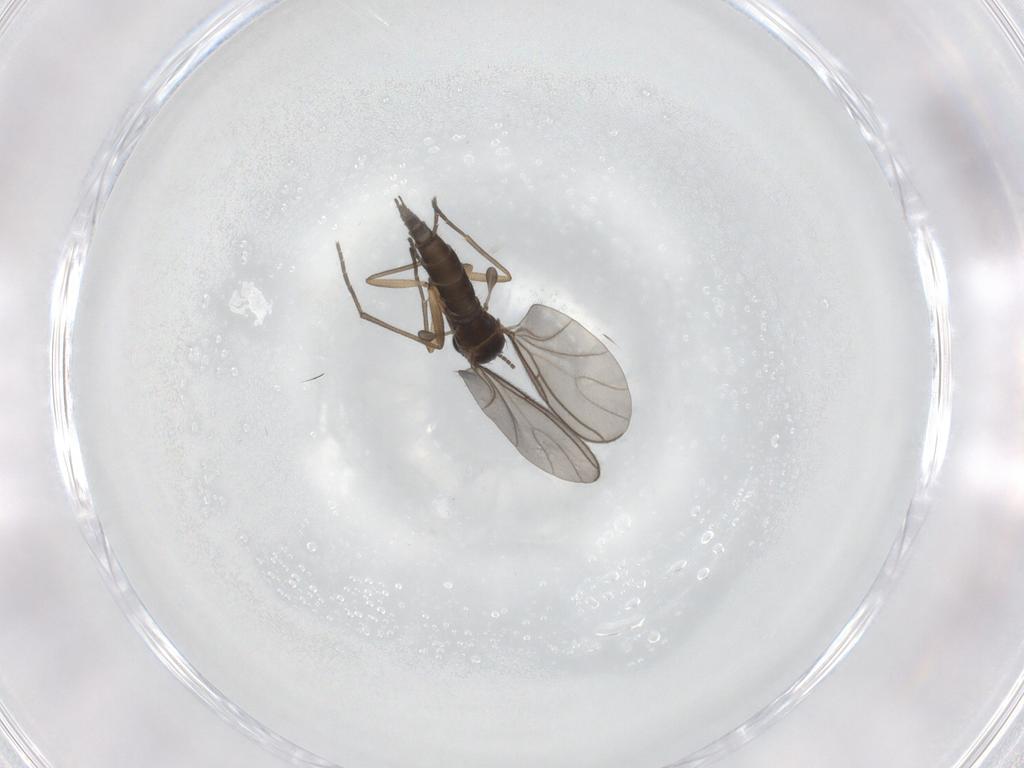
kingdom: Animalia
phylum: Arthropoda
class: Insecta
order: Diptera
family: Sciaridae
